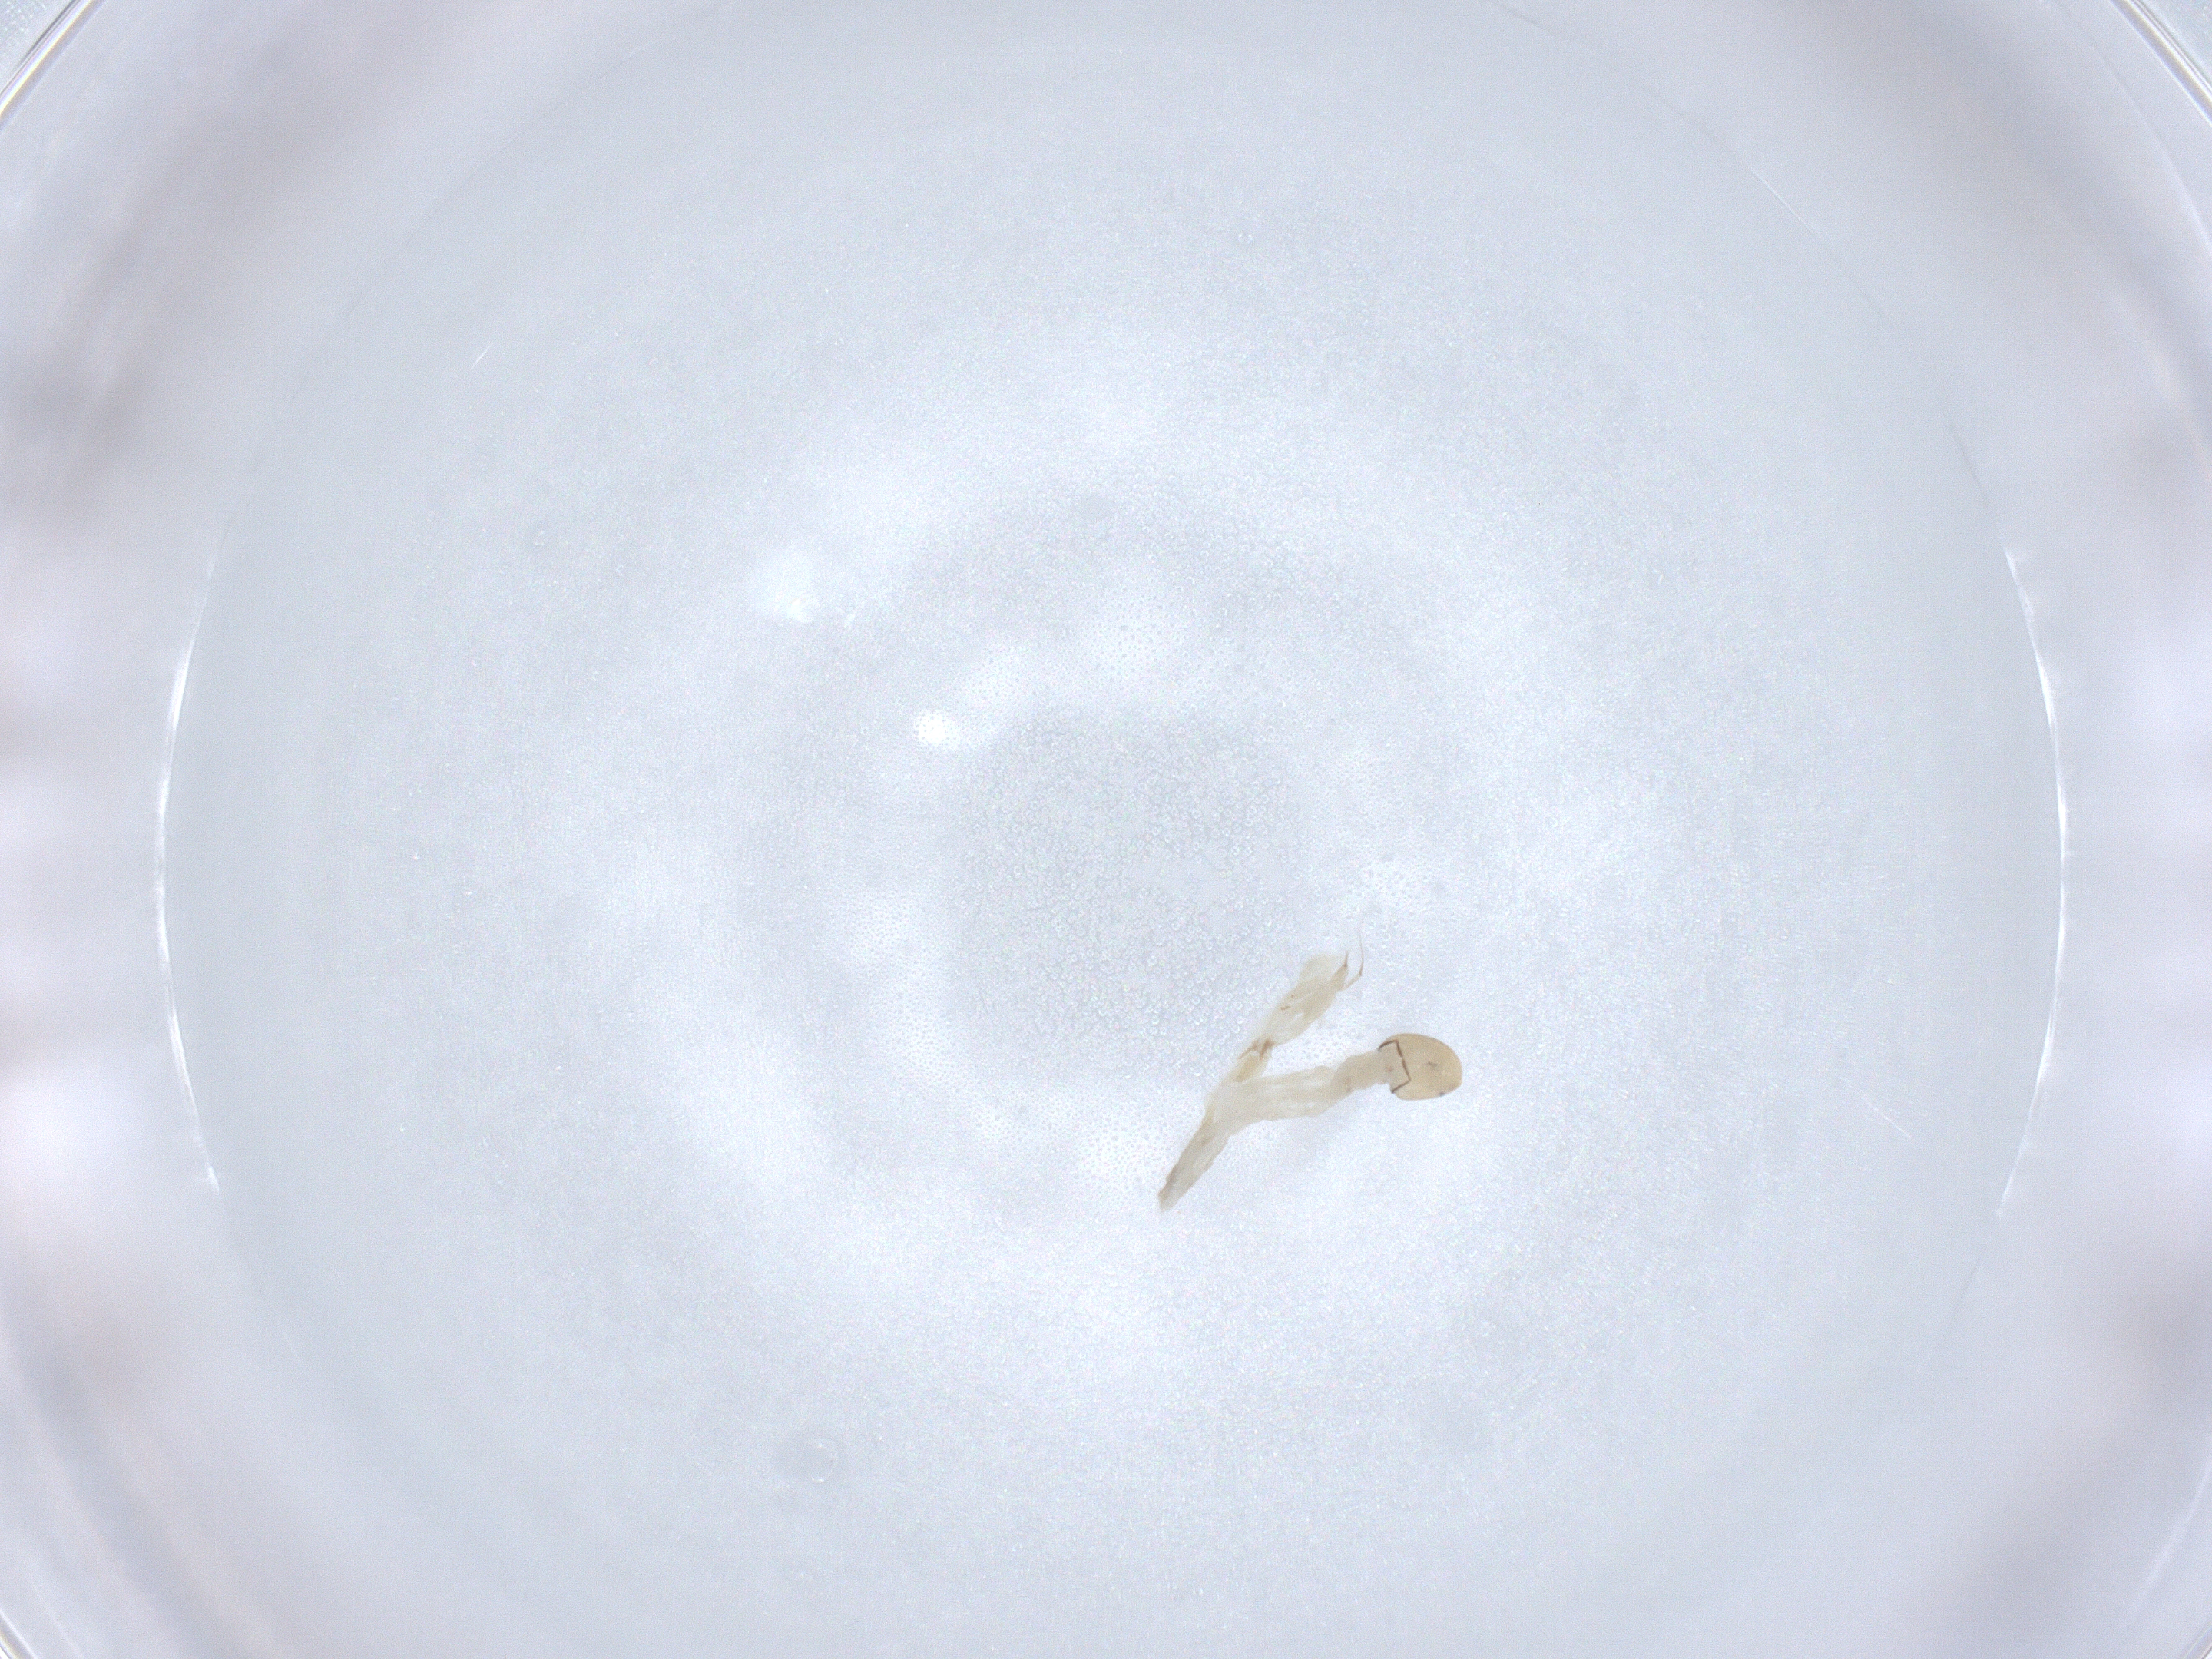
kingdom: Animalia
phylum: Arthropoda
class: Insecta
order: Diptera
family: Chironomidae
